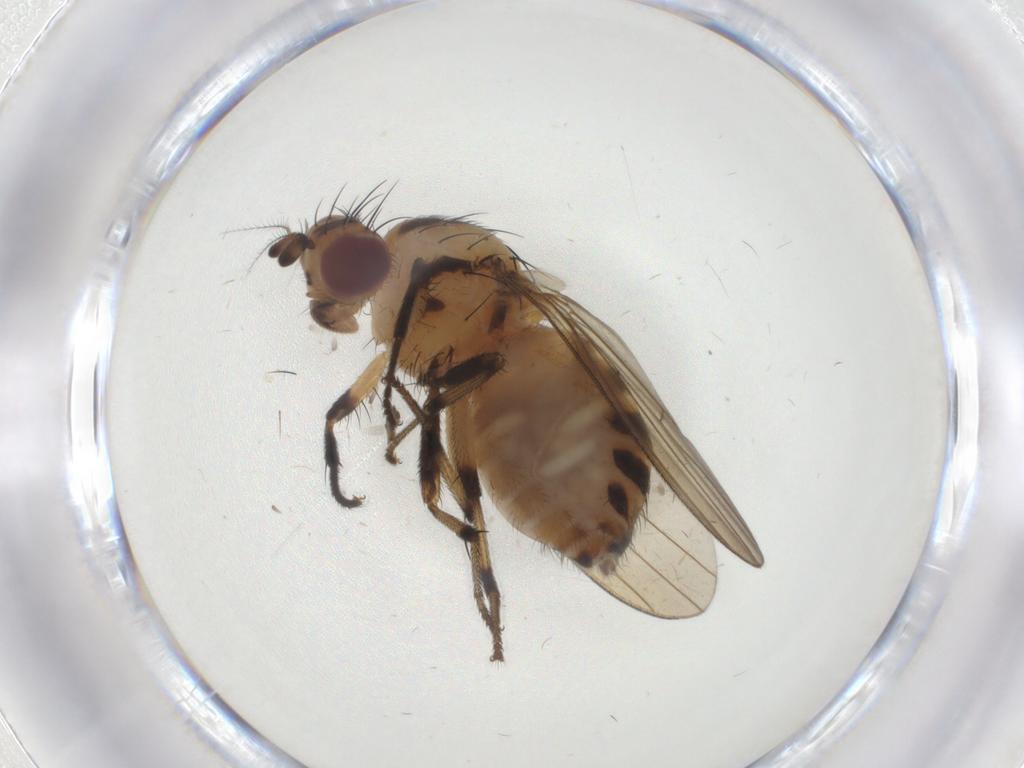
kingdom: Animalia
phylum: Arthropoda
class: Insecta
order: Diptera
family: Lauxaniidae
